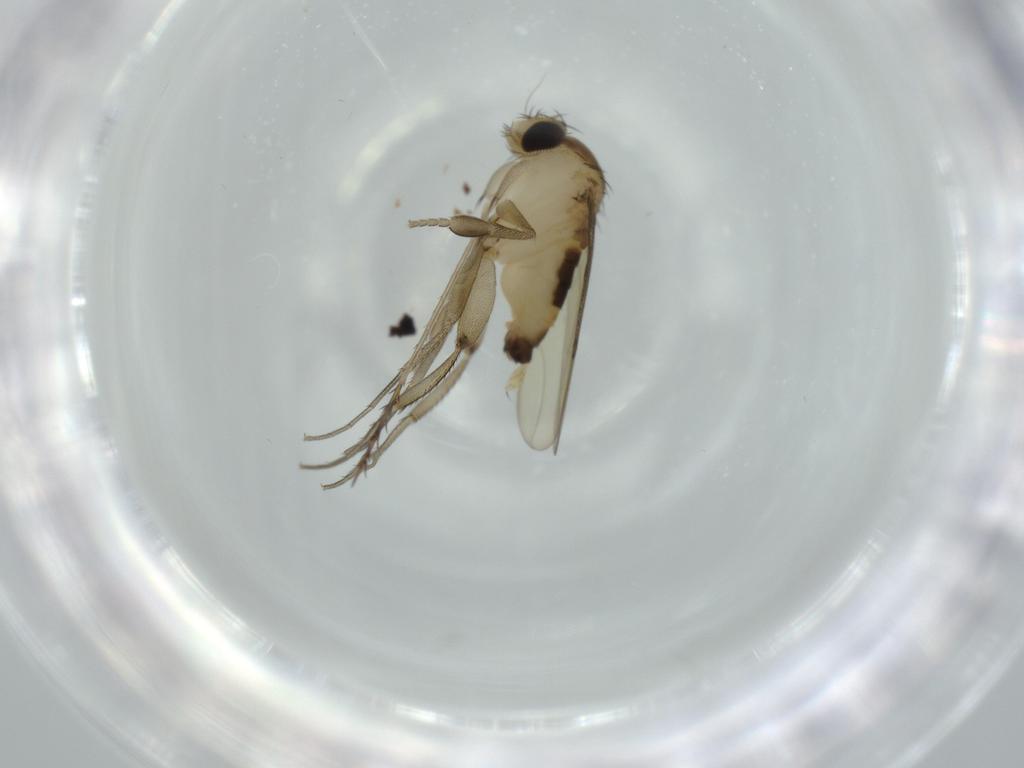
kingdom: Animalia
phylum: Arthropoda
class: Insecta
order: Diptera
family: Phoridae
